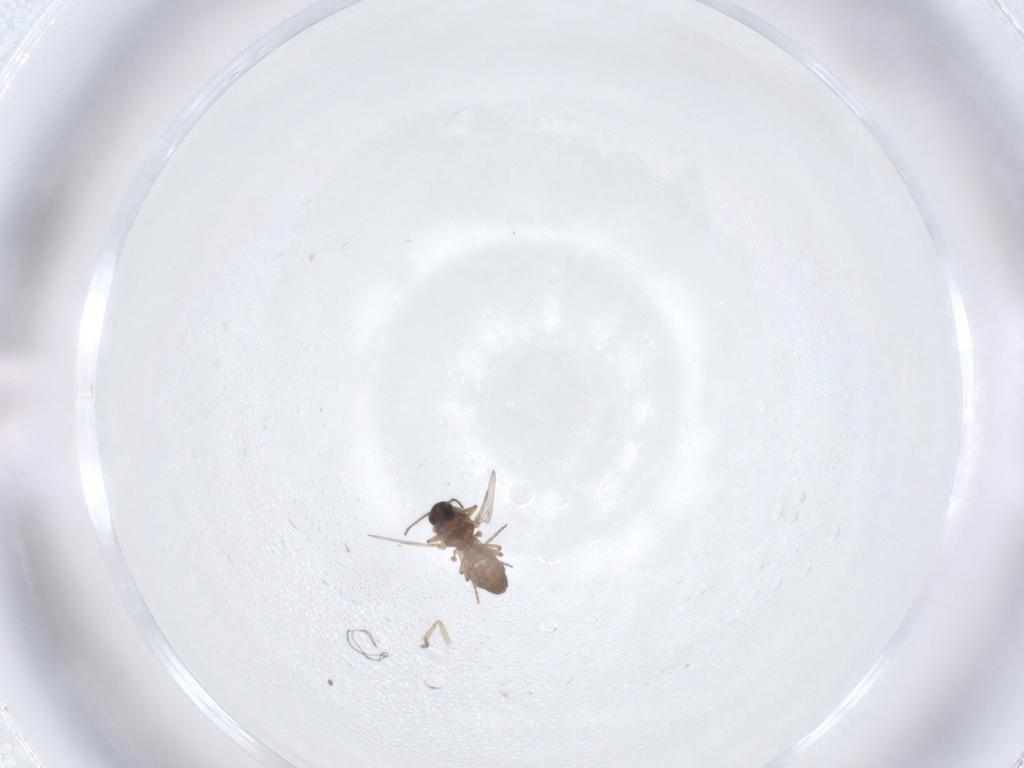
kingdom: Animalia
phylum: Arthropoda
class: Insecta
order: Diptera
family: Ceratopogonidae
